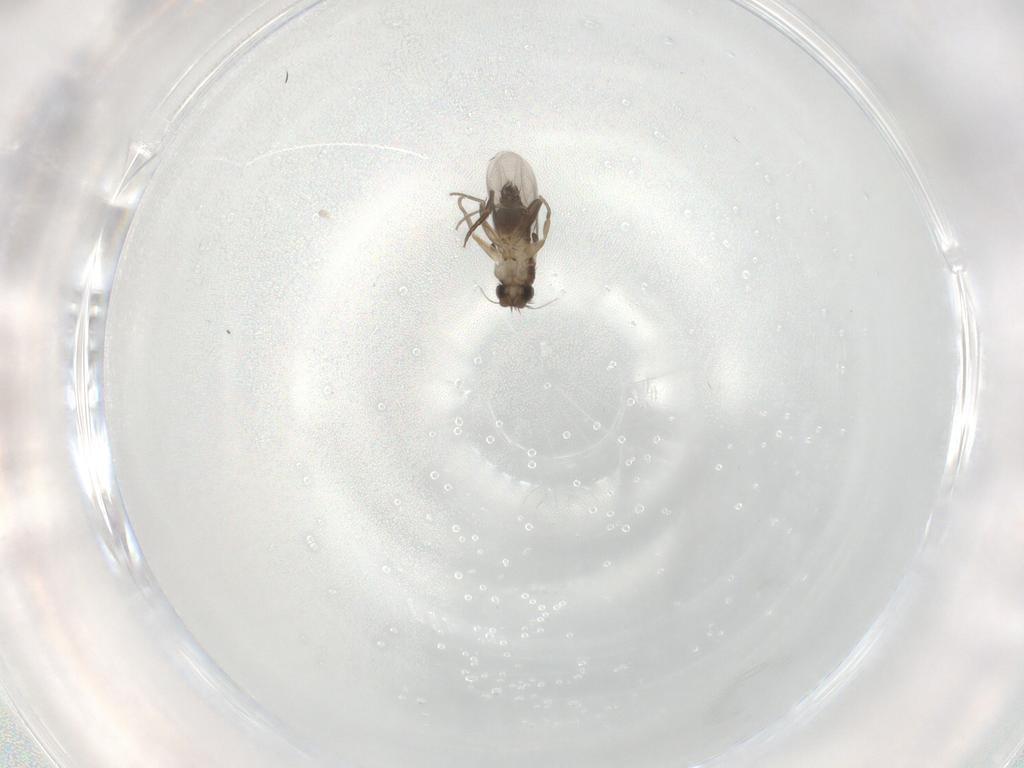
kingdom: Animalia
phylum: Arthropoda
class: Insecta
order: Diptera
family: Phoridae
